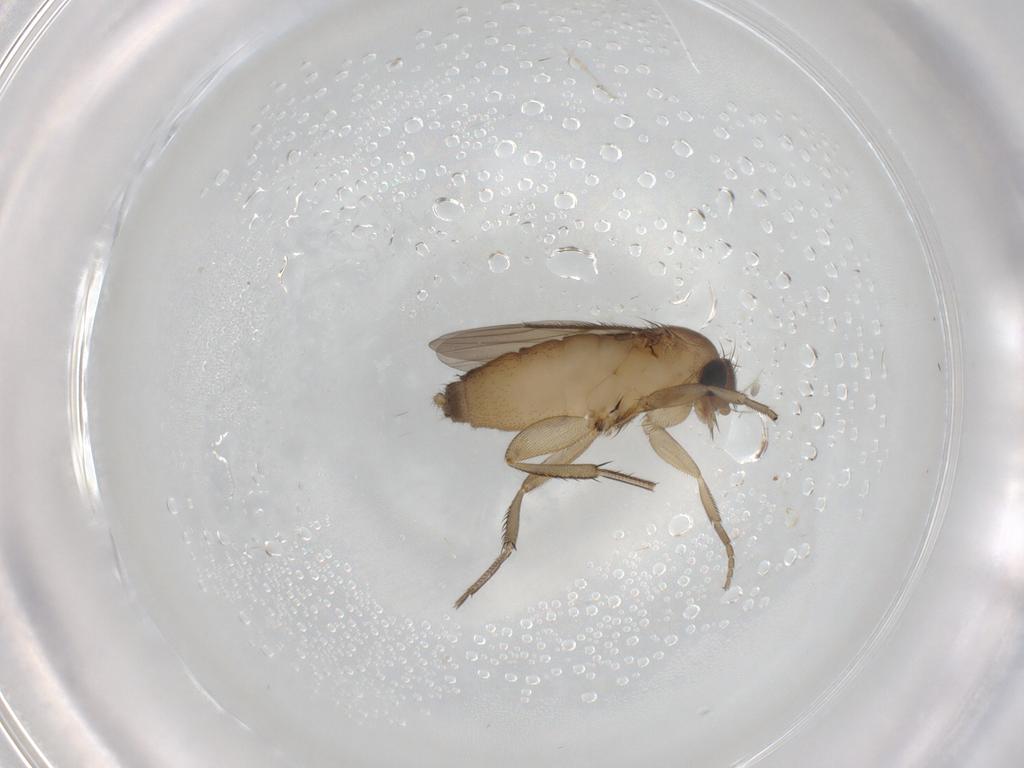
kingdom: Animalia
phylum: Arthropoda
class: Insecta
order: Diptera
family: Phoridae
